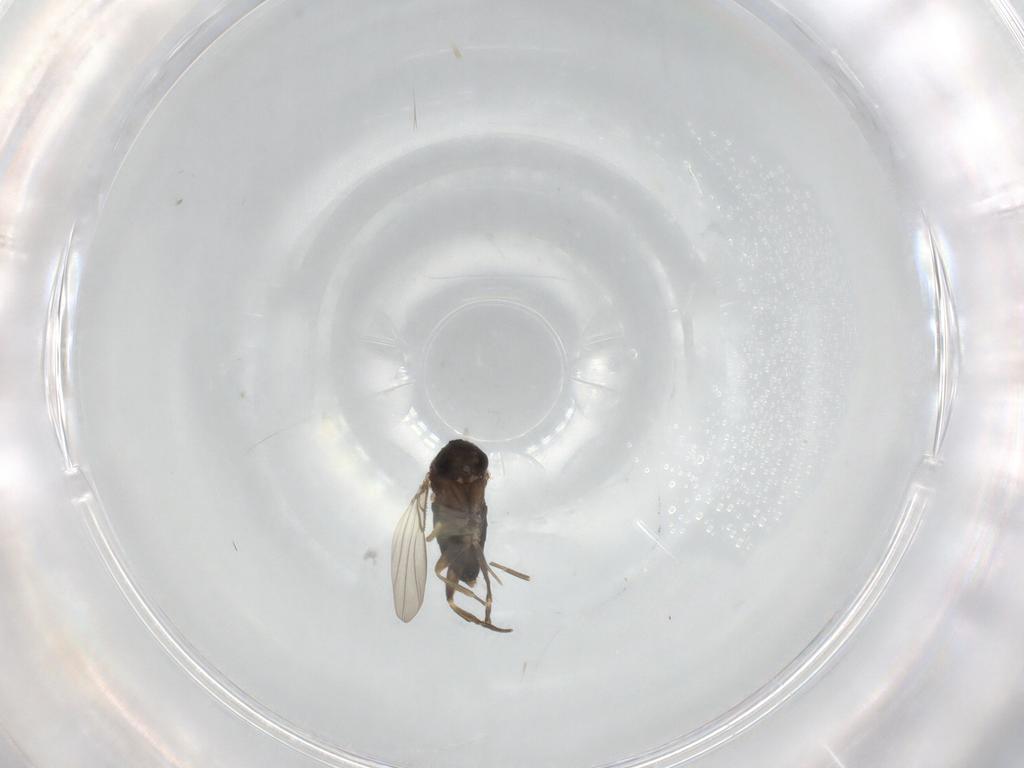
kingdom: Animalia
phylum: Arthropoda
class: Insecta
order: Diptera
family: Phoridae
